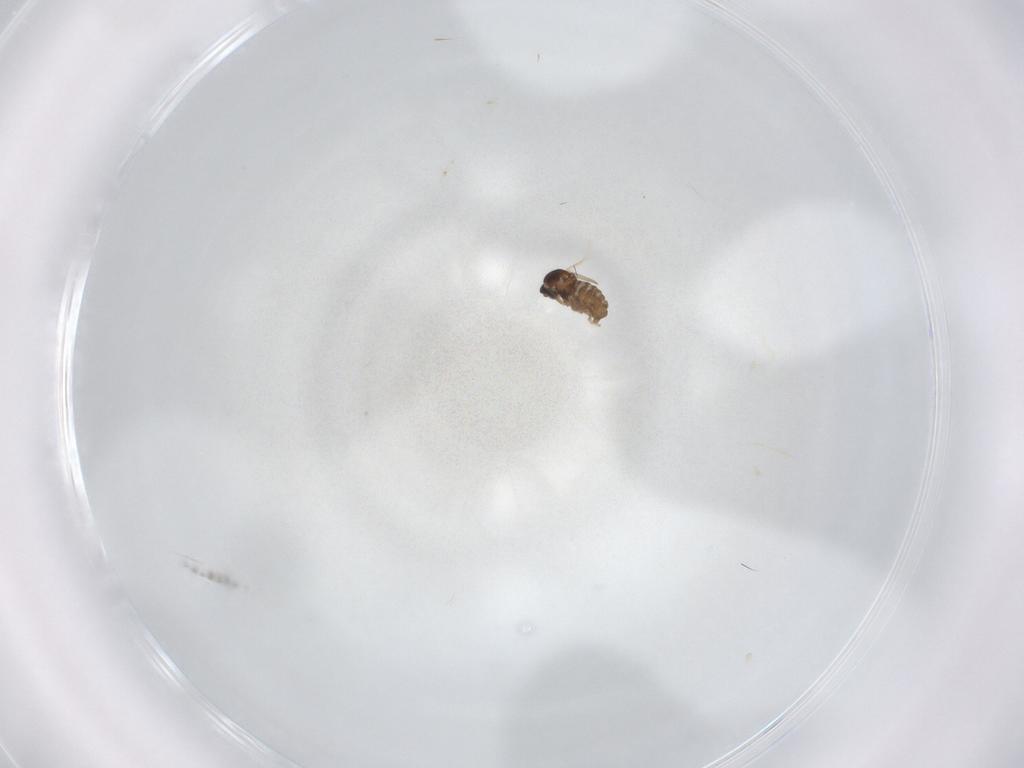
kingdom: Animalia
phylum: Arthropoda
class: Insecta
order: Diptera
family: Cecidomyiidae
